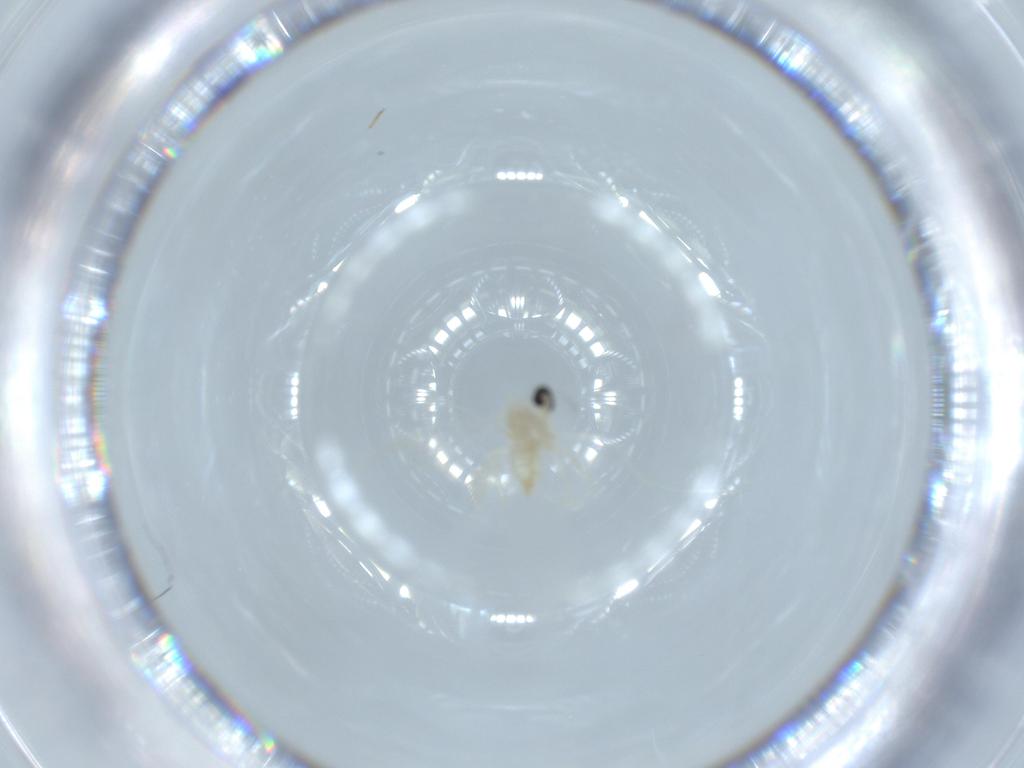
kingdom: Animalia
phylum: Arthropoda
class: Insecta
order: Diptera
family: Cecidomyiidae
